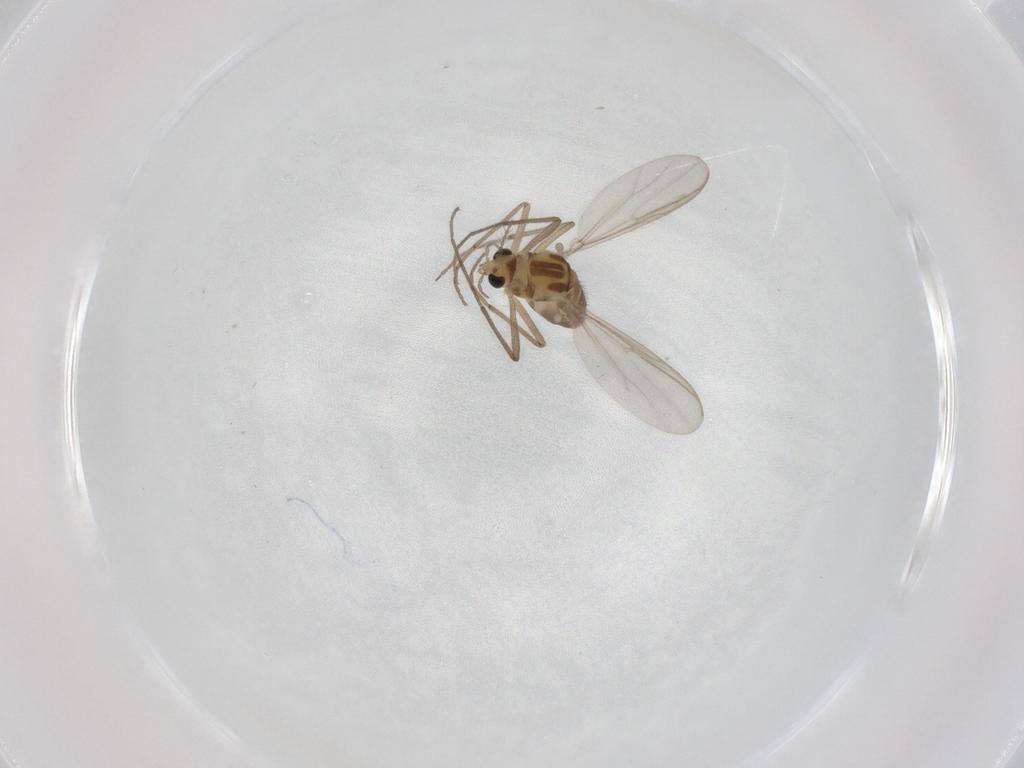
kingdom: Animalia
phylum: Arthropoda
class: Insecta
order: Diptera
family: Chironomidae
